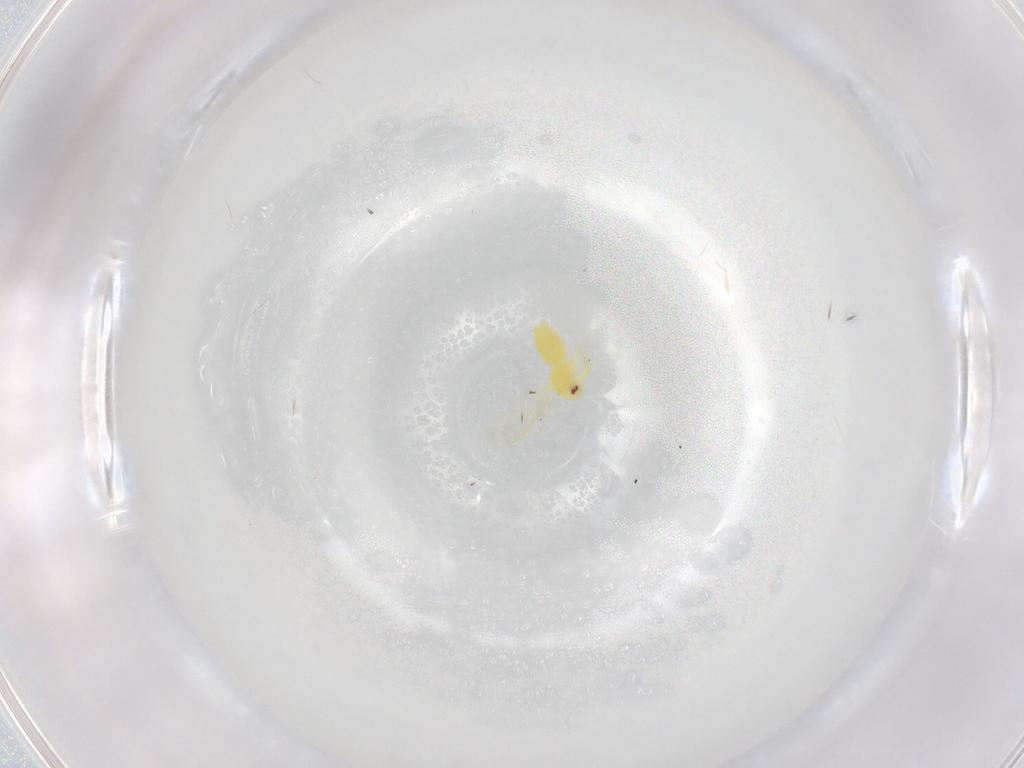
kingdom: Animalia
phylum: Arthropoda
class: Insecta
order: Hemiptera
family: Aleyrodidae
